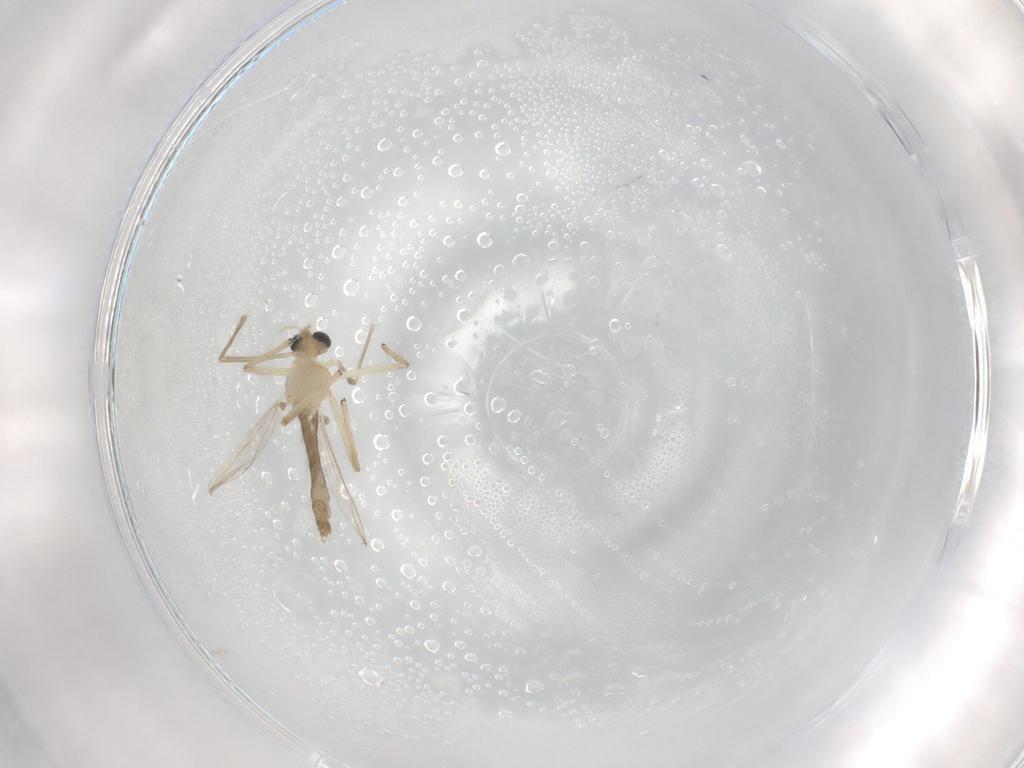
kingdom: Animalia
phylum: Arthropoda
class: Insecta
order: Diptera
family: Chironomidae
